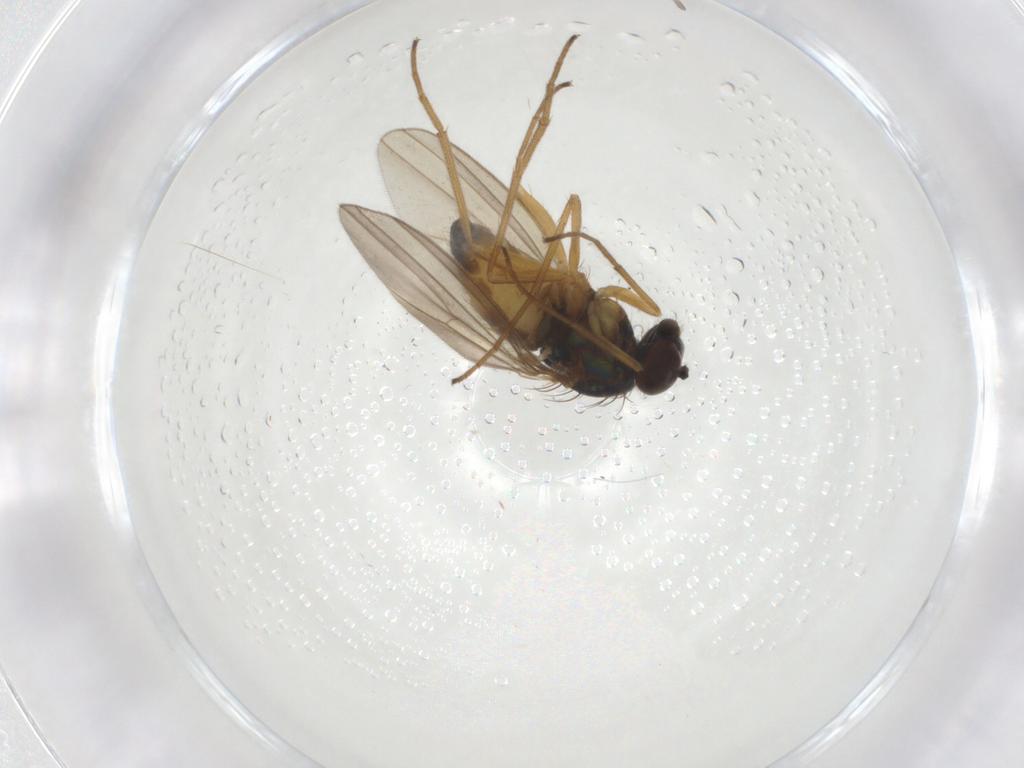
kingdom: Animalia
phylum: Arthropoda
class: Insecta
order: Diptera
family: Dolichopodidae
